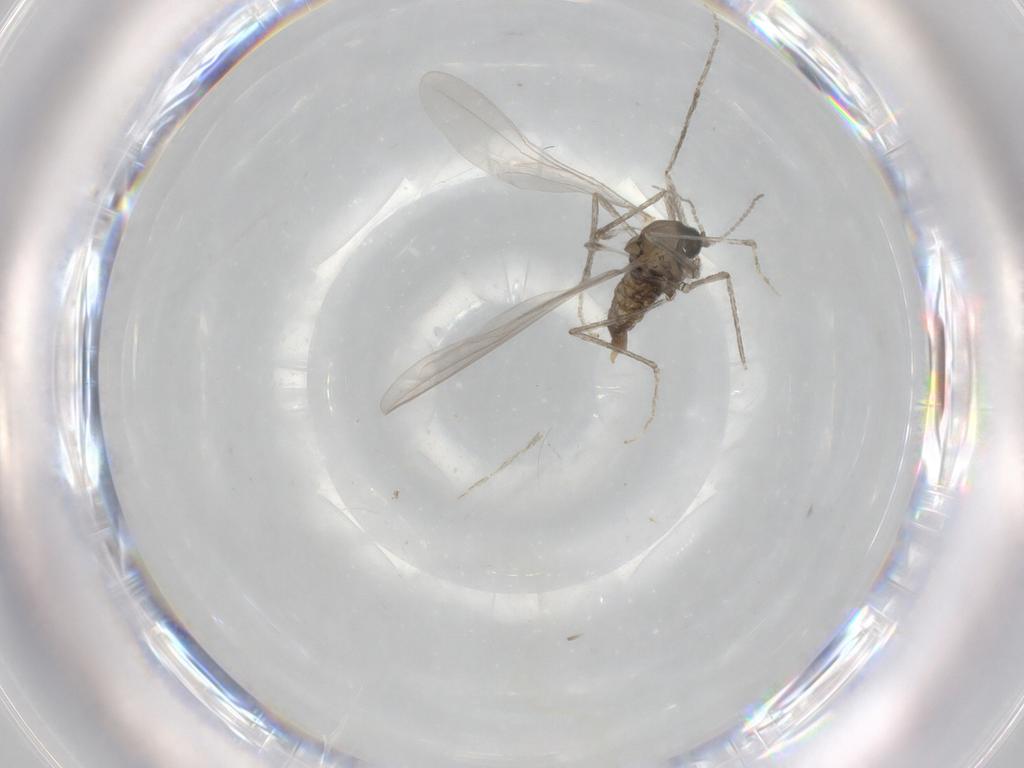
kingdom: Animalia
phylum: Arthropoda
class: Insecta
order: Diptera
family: Cecidomyiidae
